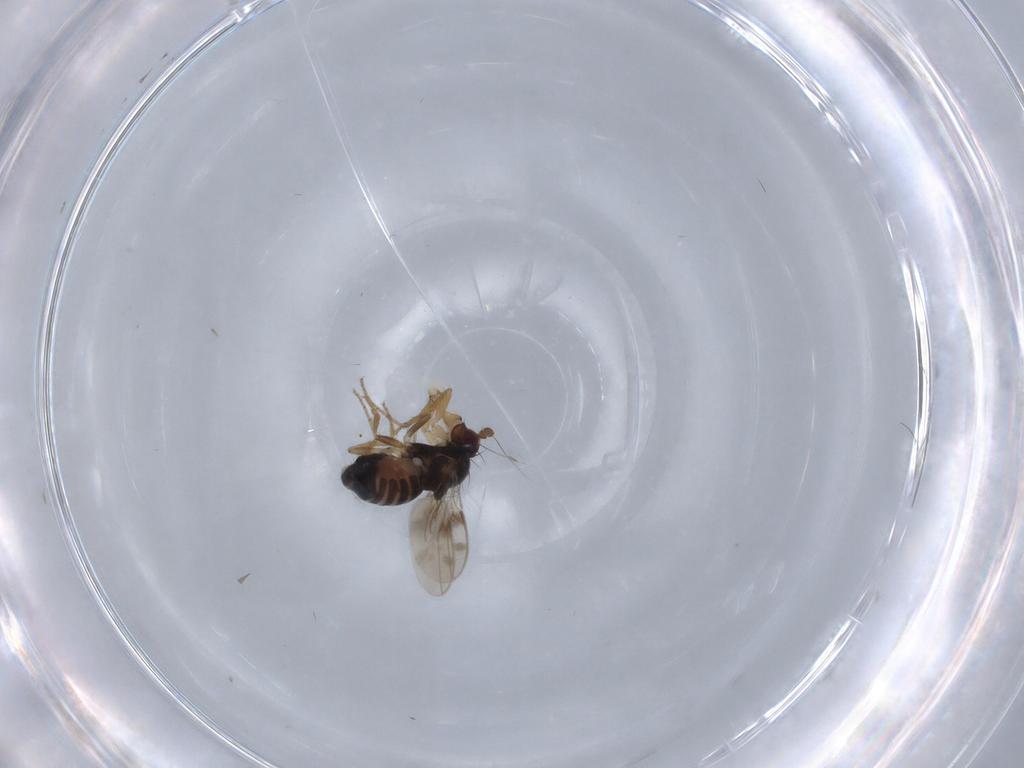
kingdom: Animalia
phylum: Arthropoda
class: Insecta
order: Diptera
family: Sphaeroceridae
